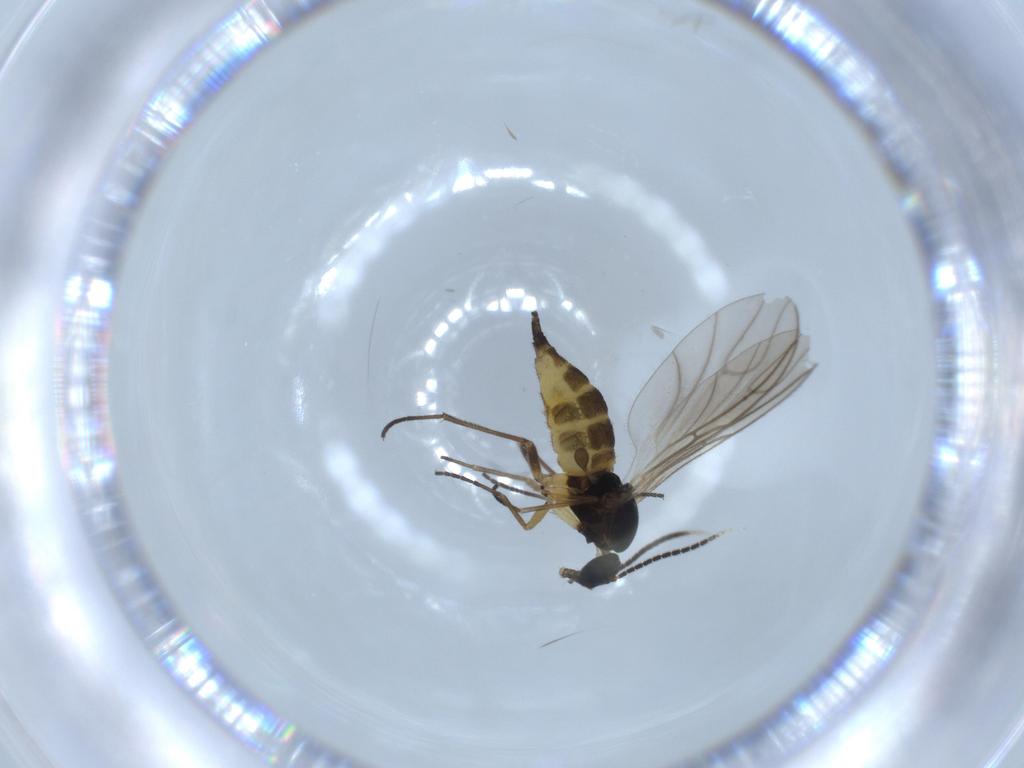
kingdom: Animalia
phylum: Arthropoda
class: Insecta
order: Diptera
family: Sciaridae
